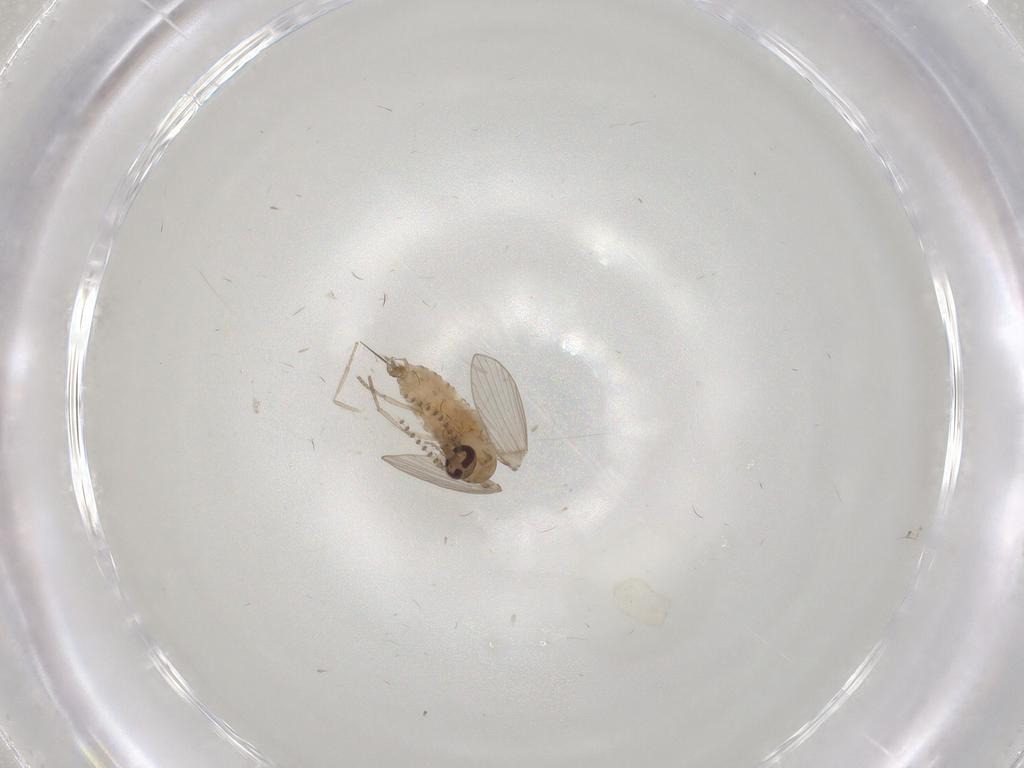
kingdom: Animalia
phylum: Arthropoda
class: Insecta
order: Diptera
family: Psychodidae
